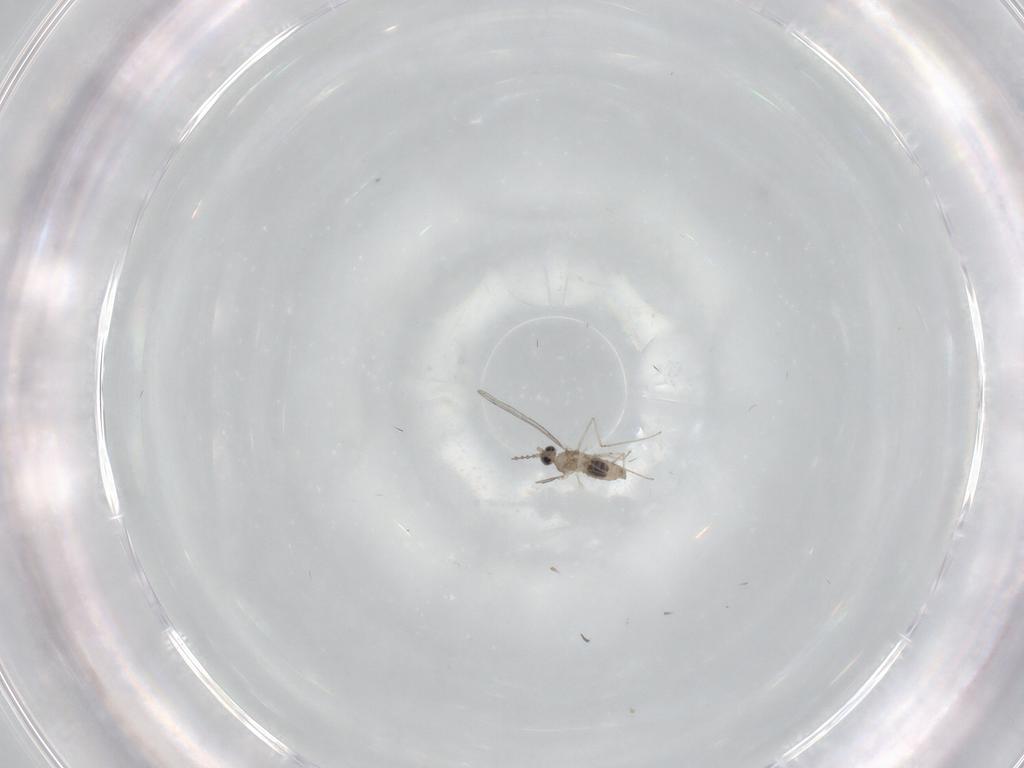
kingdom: Animalia
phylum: Arthropoda
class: Insecta
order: Diptera
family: Cecidomyiidae
